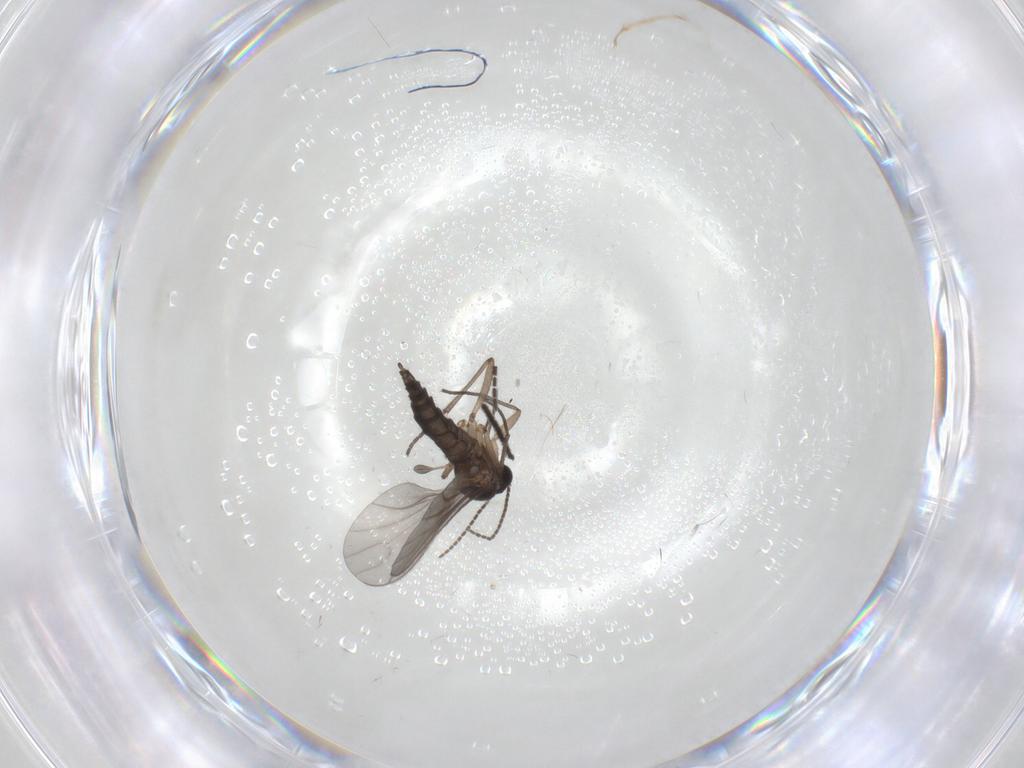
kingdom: Animalia
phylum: Arthropoda
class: Insecta
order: Diptera
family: Sciaridae
